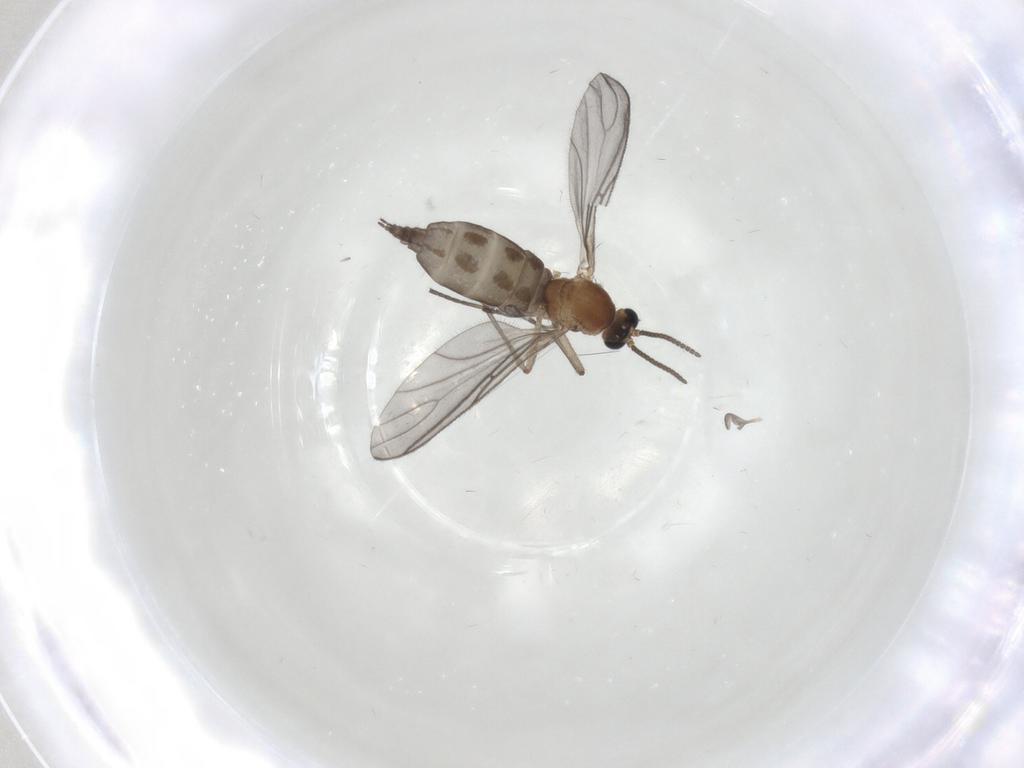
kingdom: Animalia
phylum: Arthropoda
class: Insecta
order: Diptera
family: Sciaridae
